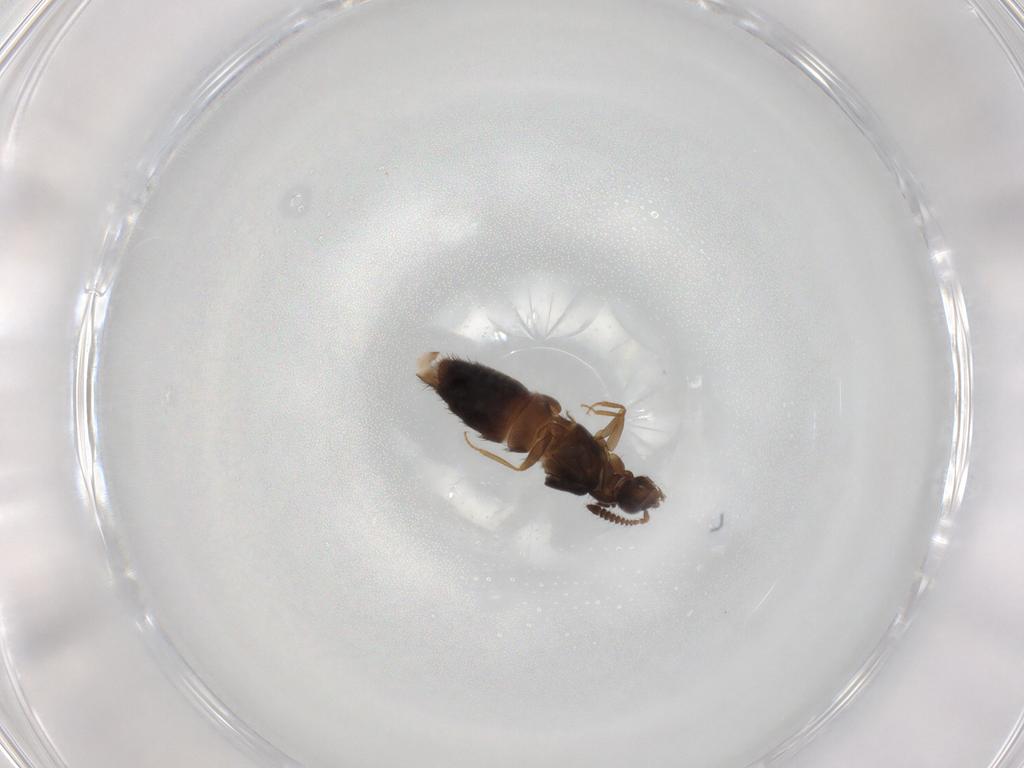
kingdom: Animalia
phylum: Arthropoda
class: Insecta
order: Coleoptera
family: Staphylinidae
